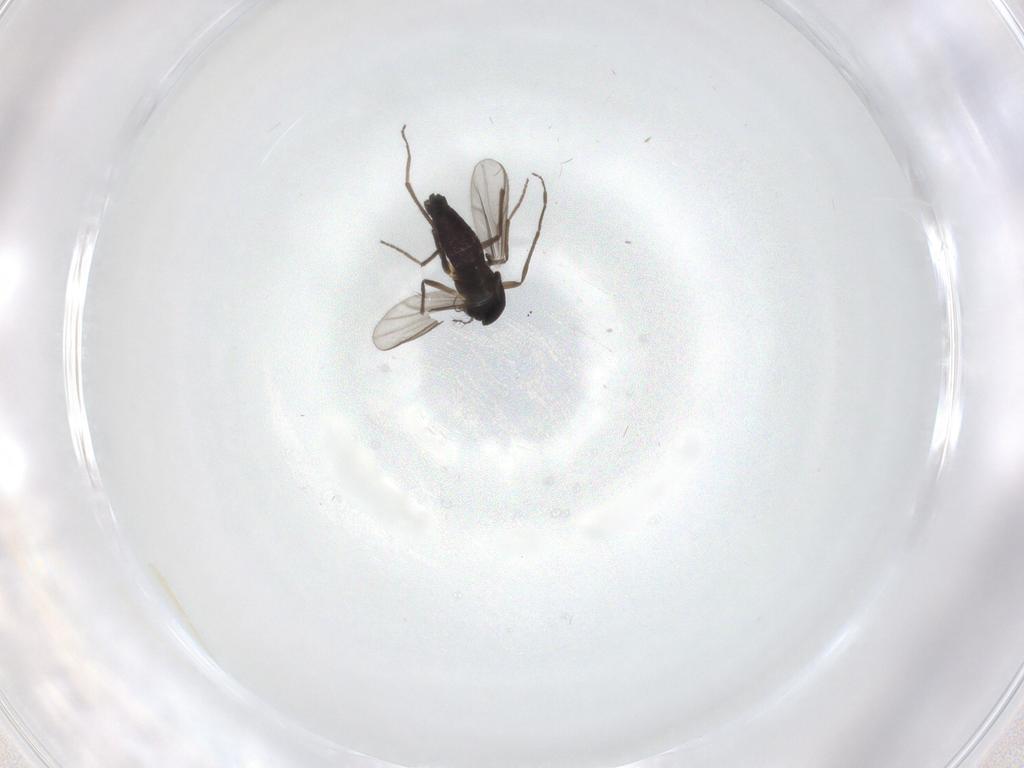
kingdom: Animalia
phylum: Arthropoda
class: Insecta
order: Diptera
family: Chironomidae
